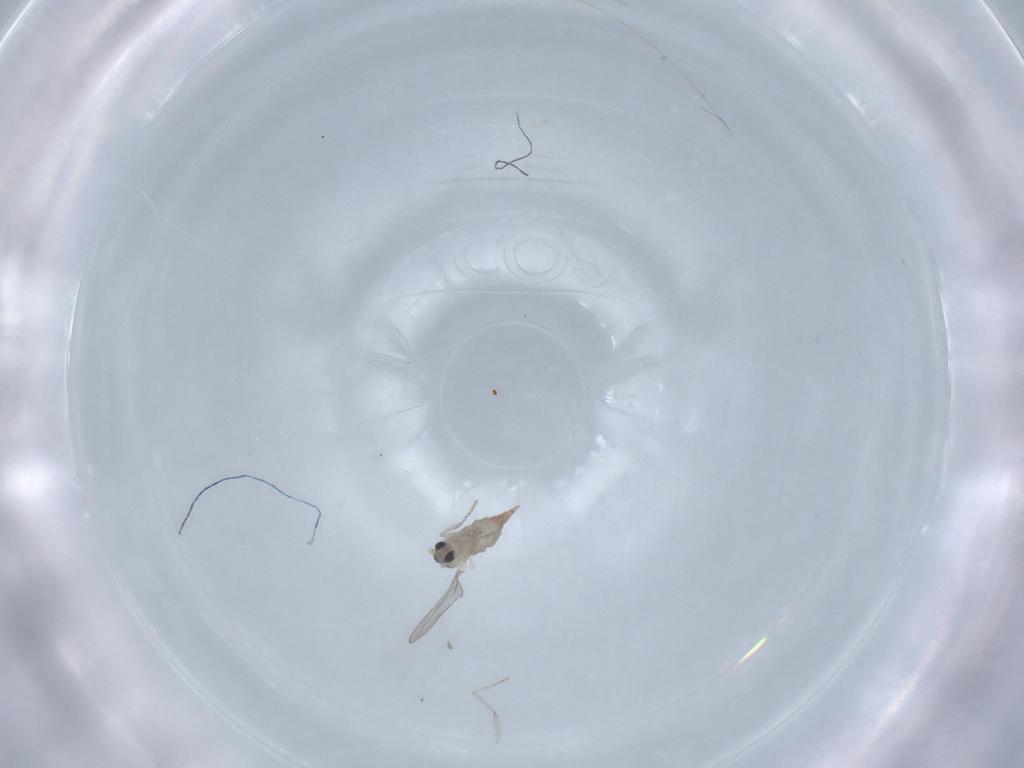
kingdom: Animalia
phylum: Arthropoda
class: Insecta
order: Diptera
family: Cecidomyiidae
